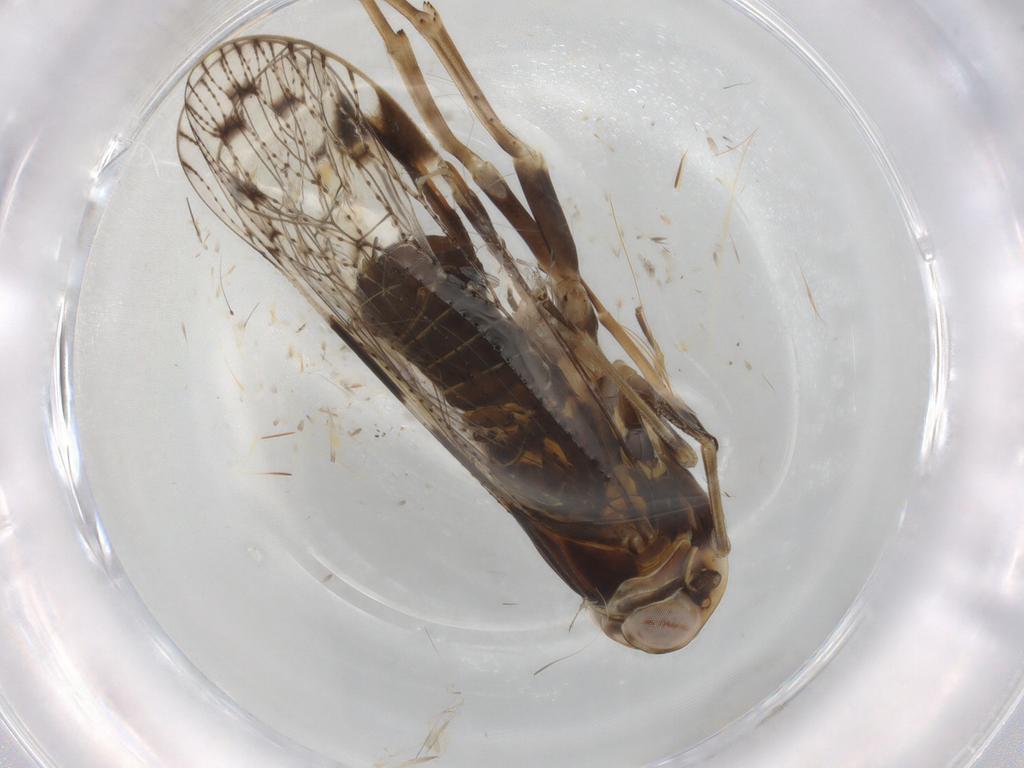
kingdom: Animalia
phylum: Arthropoda
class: Insecta
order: Hemiptera
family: Cixiidae
